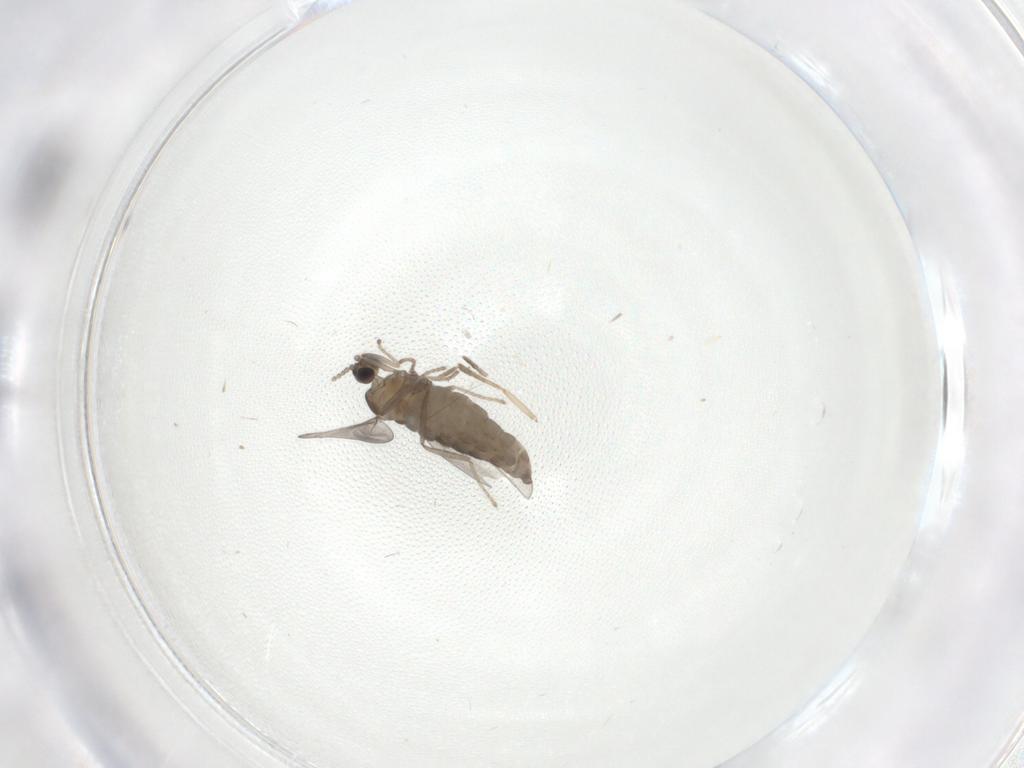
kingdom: Animalia
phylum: Arthropoda
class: Insecta
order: Diptera
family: Cecidomyiidae
